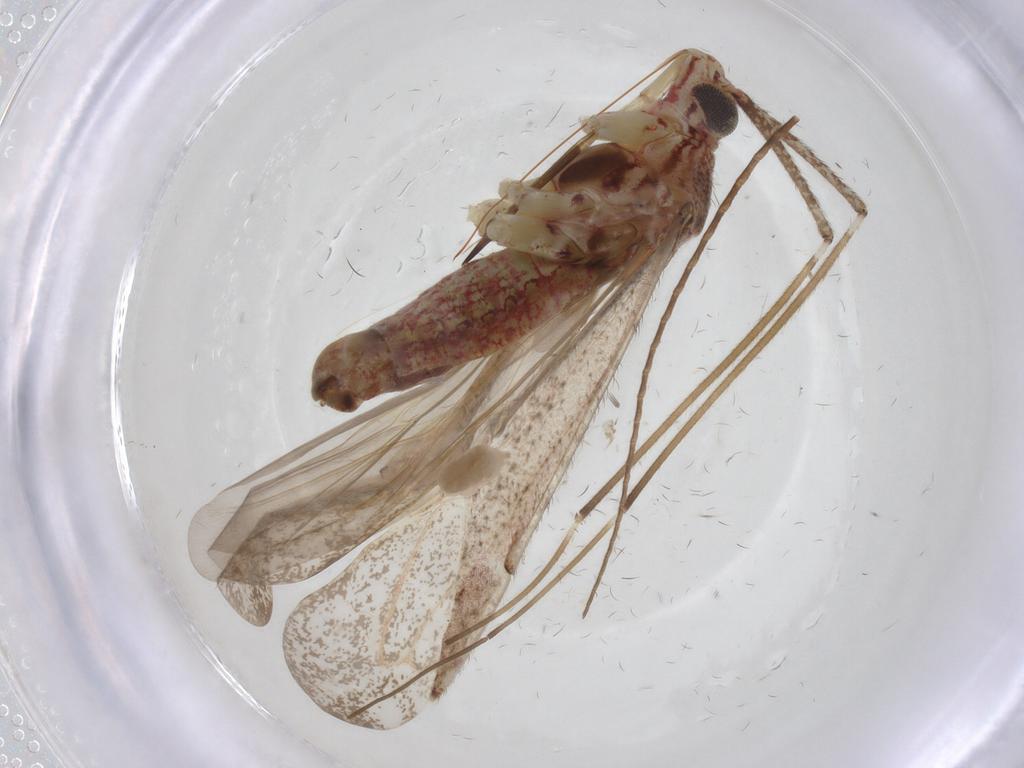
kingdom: Animalia
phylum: Arthropoda
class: Insecta
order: Hemiptera
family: Miridae
